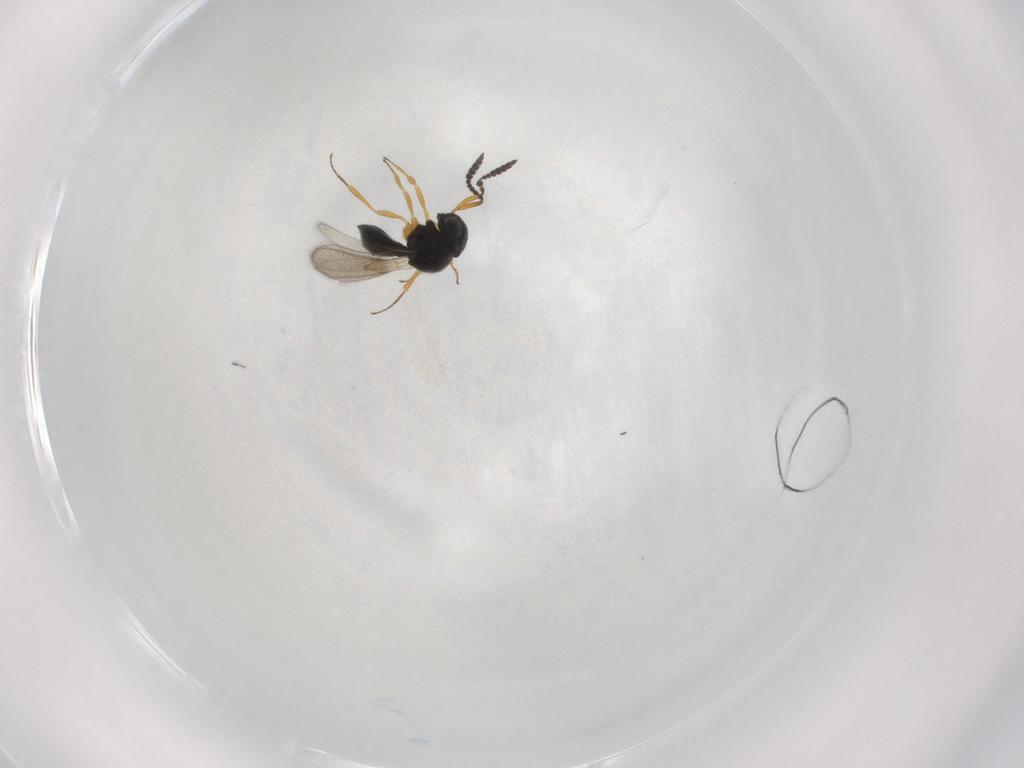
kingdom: Animalia
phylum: Arthropoda
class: Insecta
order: Hymenoptera
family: Scelionidae
